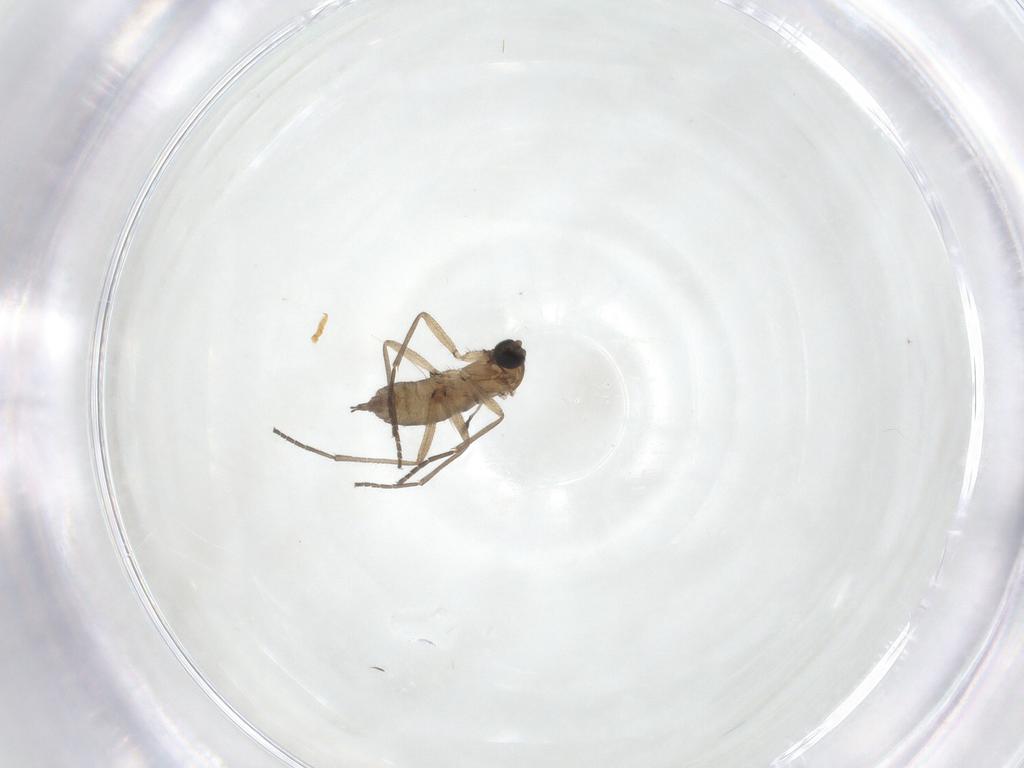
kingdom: Animalia
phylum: Arthropoda
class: Insecta
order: Diptera
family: Sciaridae
